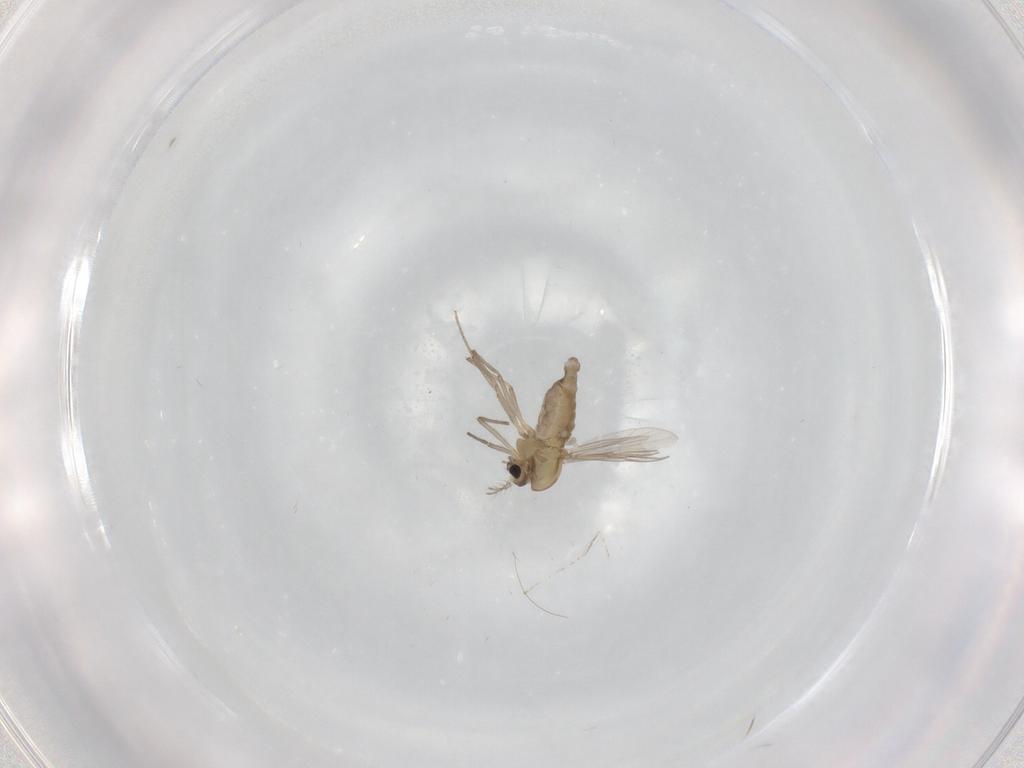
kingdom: Animalia
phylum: Arthropoda
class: Insecta
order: Diptera
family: Chironomidae
